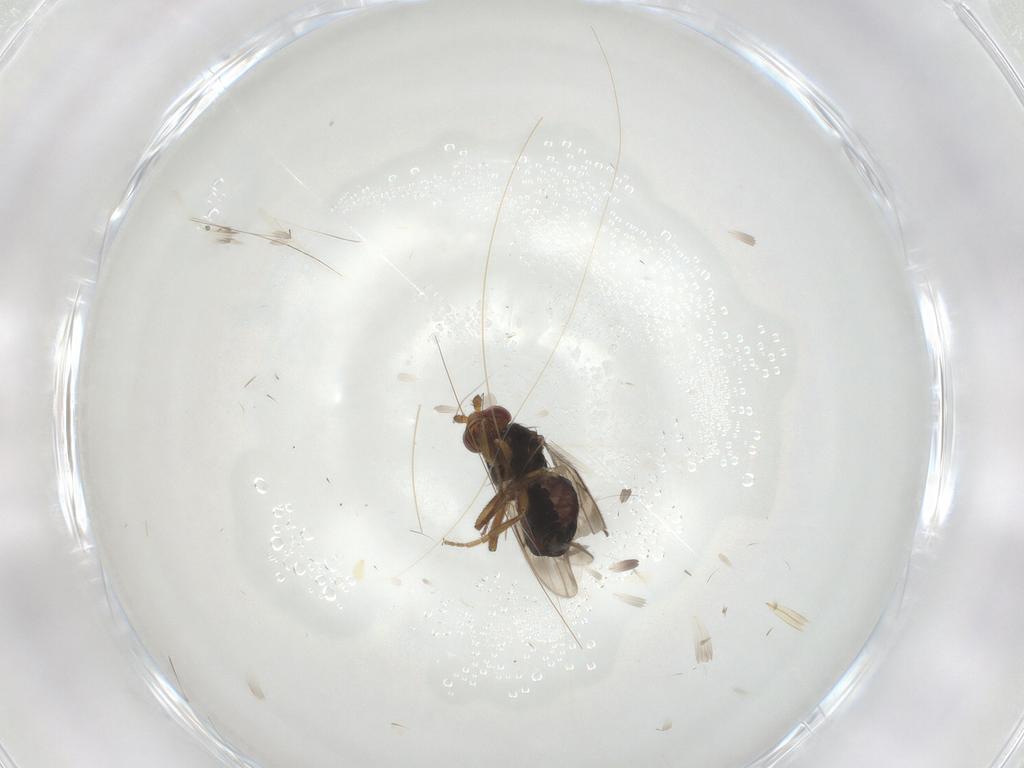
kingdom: Animalia
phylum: Arthropoda
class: Insecta
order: Diptera
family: Sphaeroceridae
